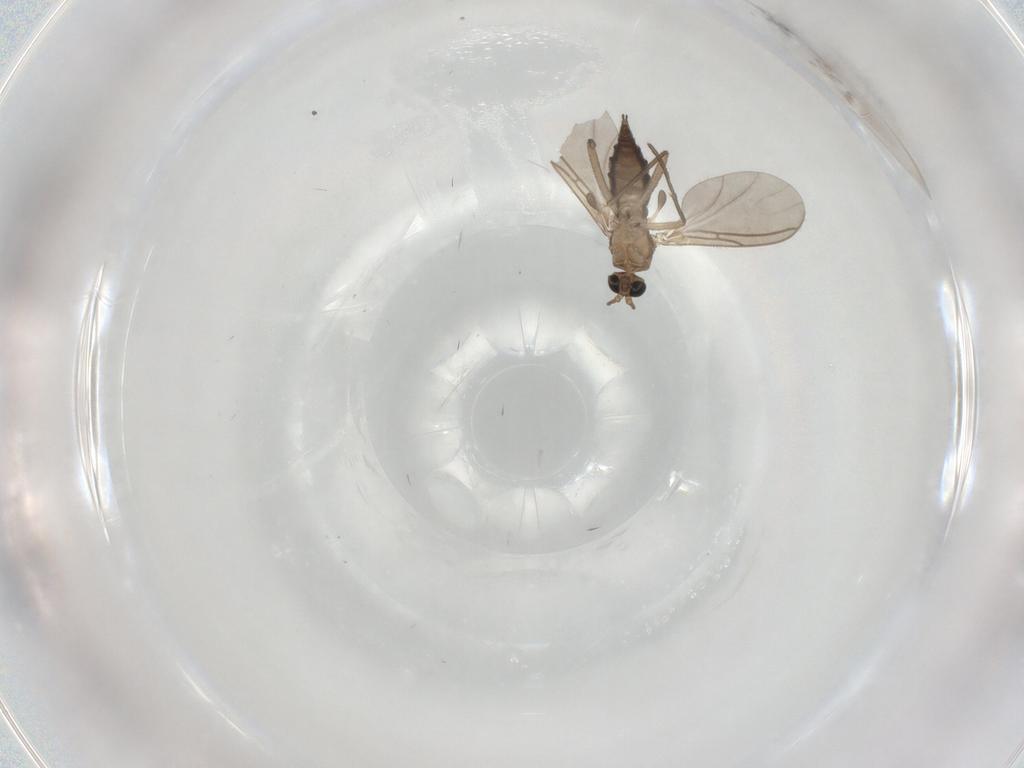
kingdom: Animalia
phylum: Arthropoda
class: Insecta
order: Diptera
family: Sciaridae
